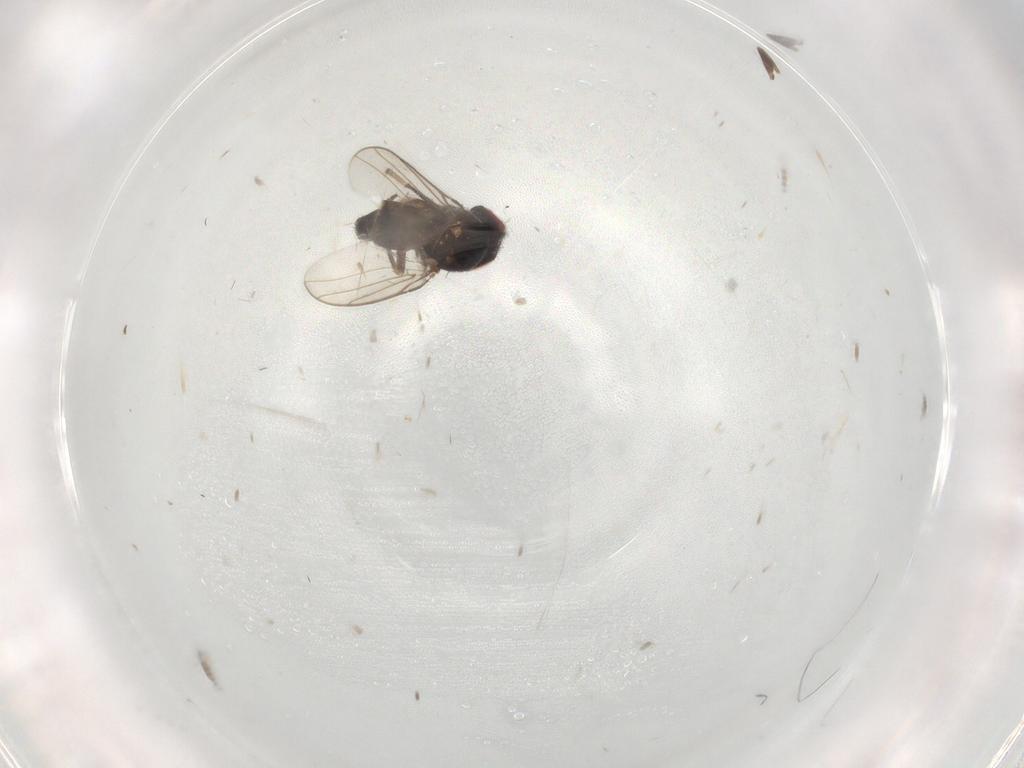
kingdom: Animalia
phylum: Arthropoda
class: Insecta
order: Diptera
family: Chloropidae
